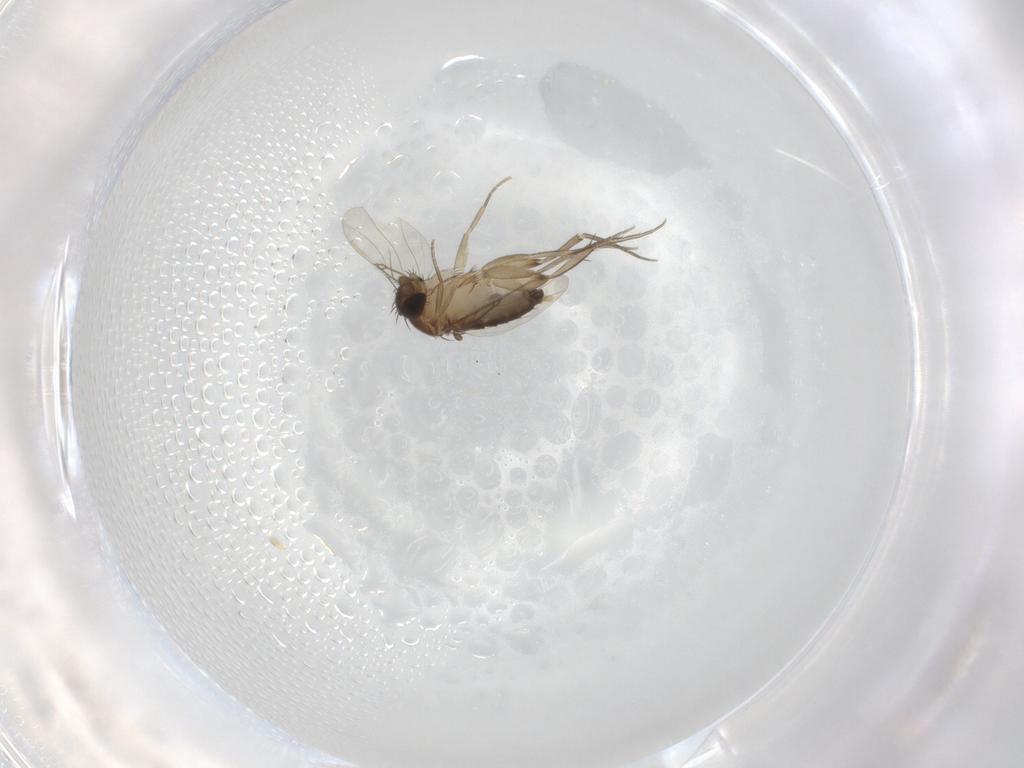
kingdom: Animalia
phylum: Arthropoda
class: Insecta
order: Diptera
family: Phoridae
